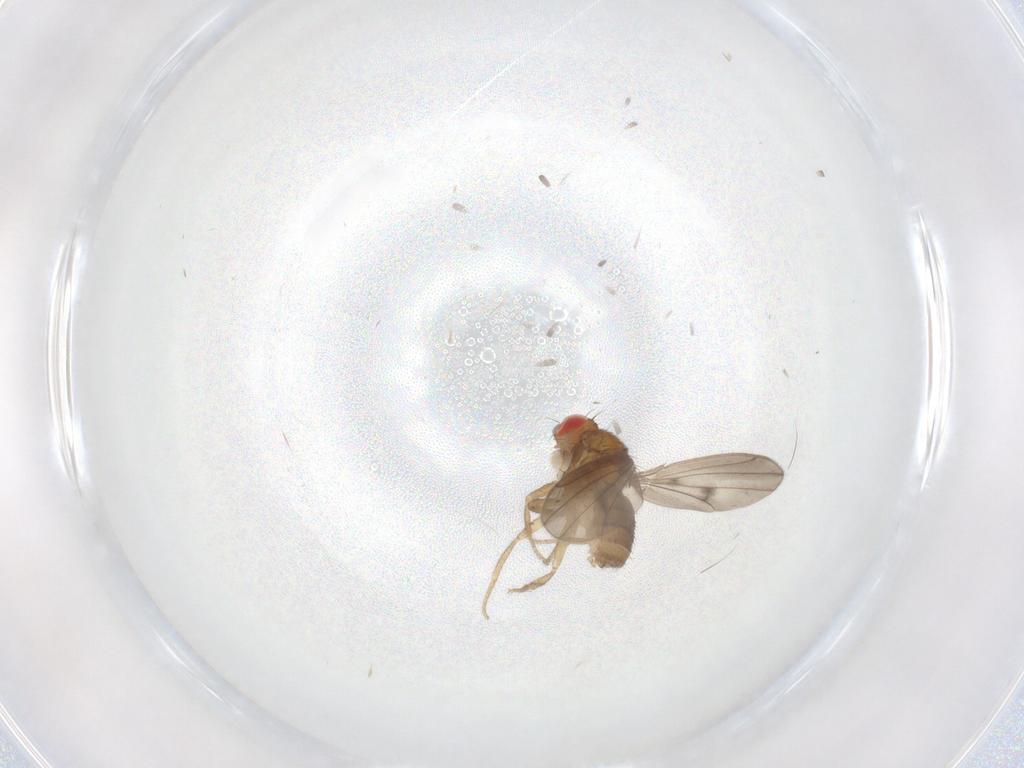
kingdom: Animalia
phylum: Arthropoda
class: Insecta
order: Diptera
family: Drosophilidae
